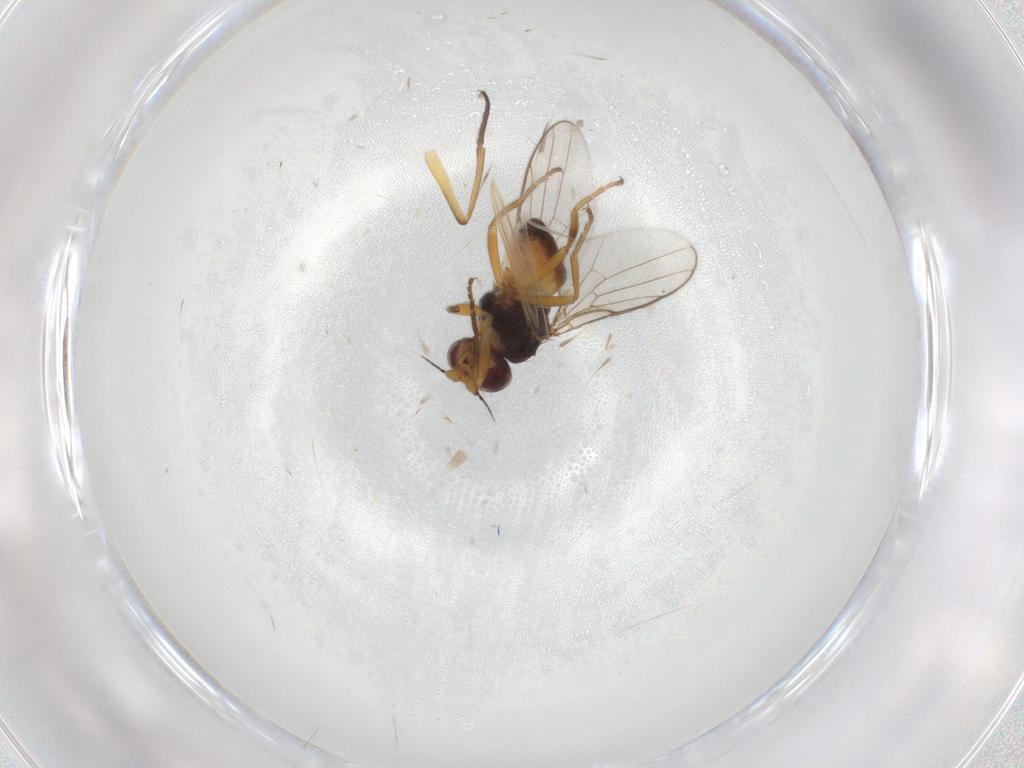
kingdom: Animalia
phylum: Arthropoda
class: Insecta
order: Diptera
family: Chloropidae
